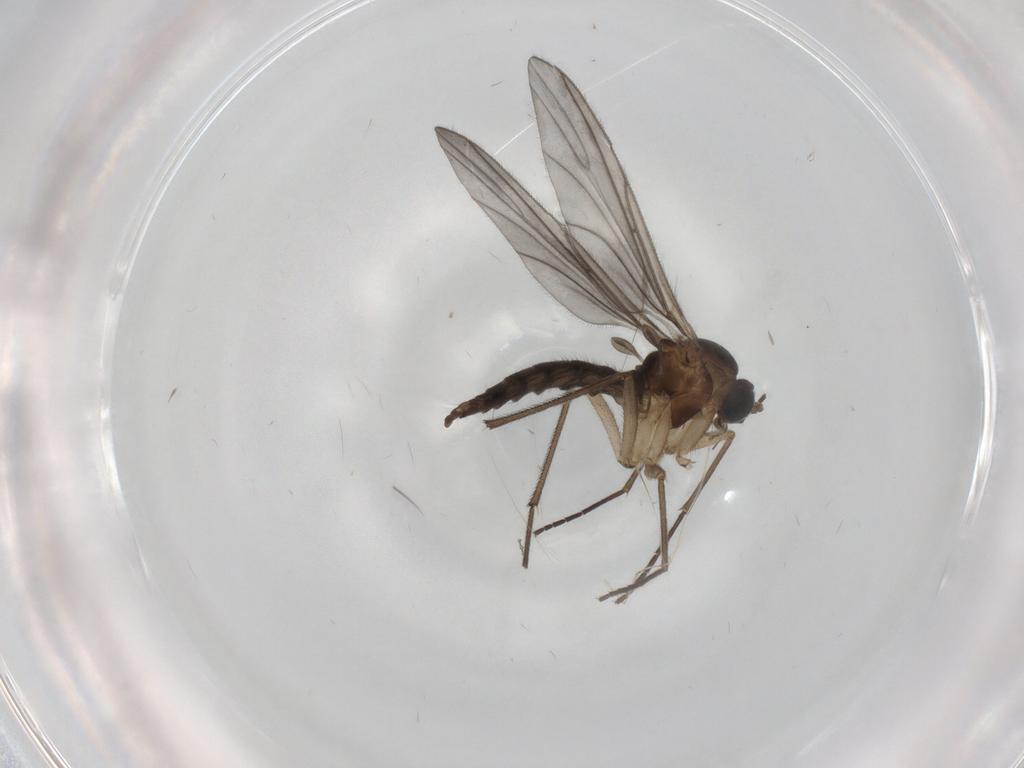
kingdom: Animalia
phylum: Arthropoda
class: Insecta
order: Diptera
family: Sciaridae
